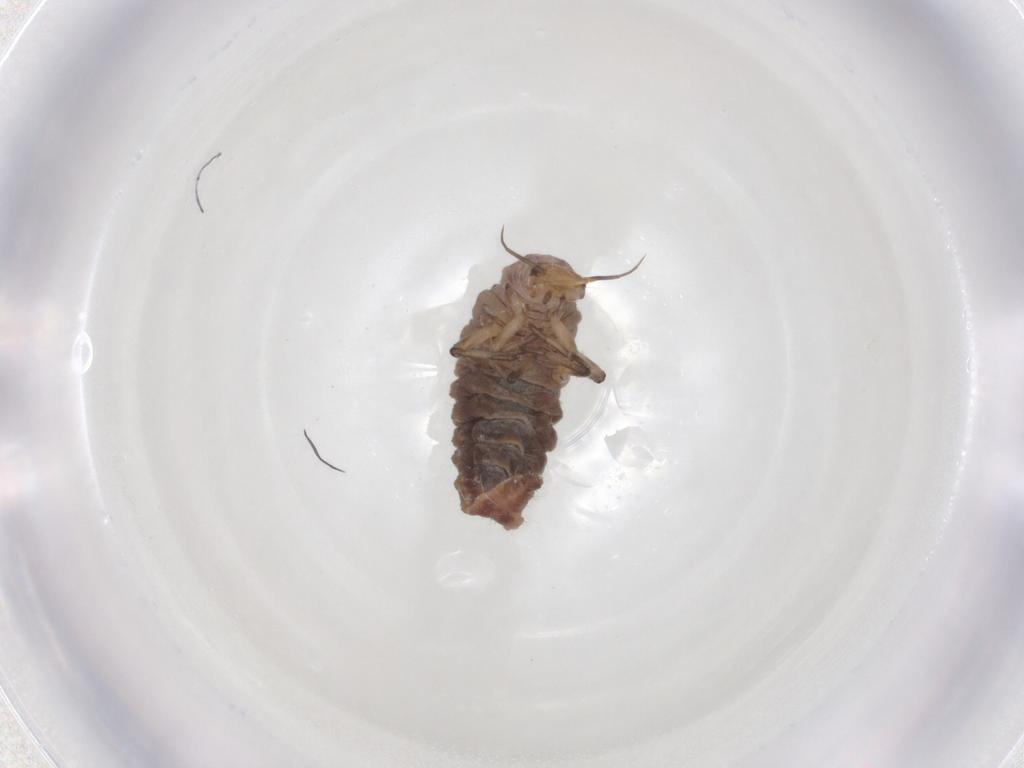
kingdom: Animalia
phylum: Arthropoda
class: Insecta
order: Neuroptera
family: Hemerobiidae
